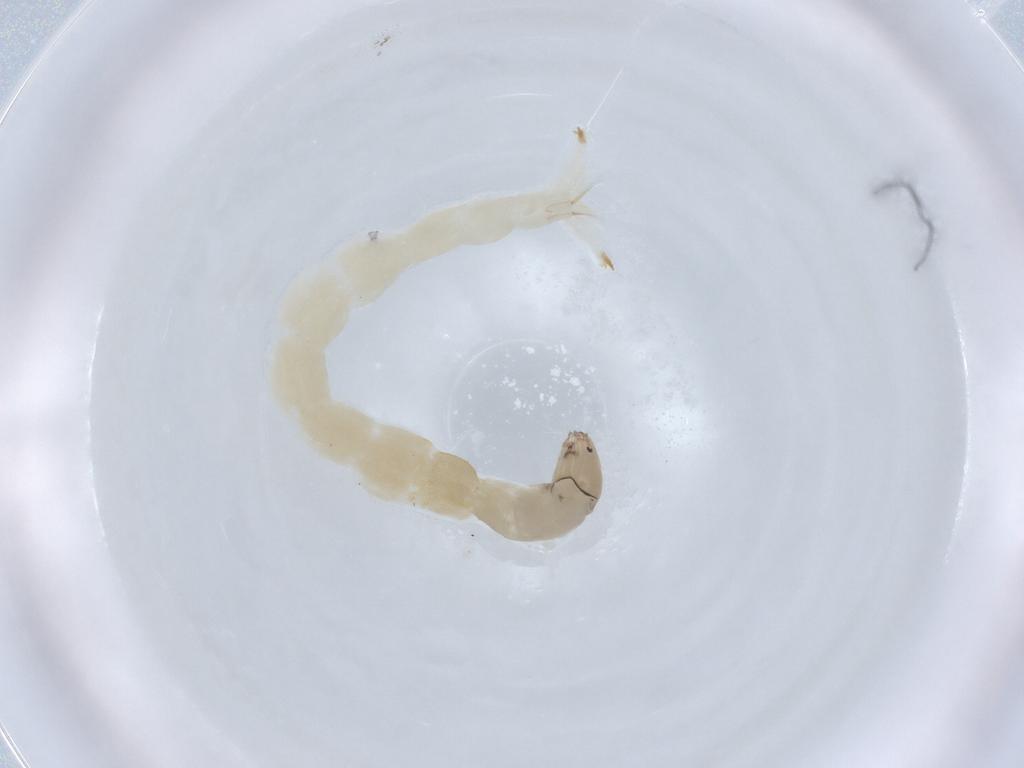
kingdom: Animalia
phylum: Arthropoda
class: Insecta
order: Diptera
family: Chironomidae
